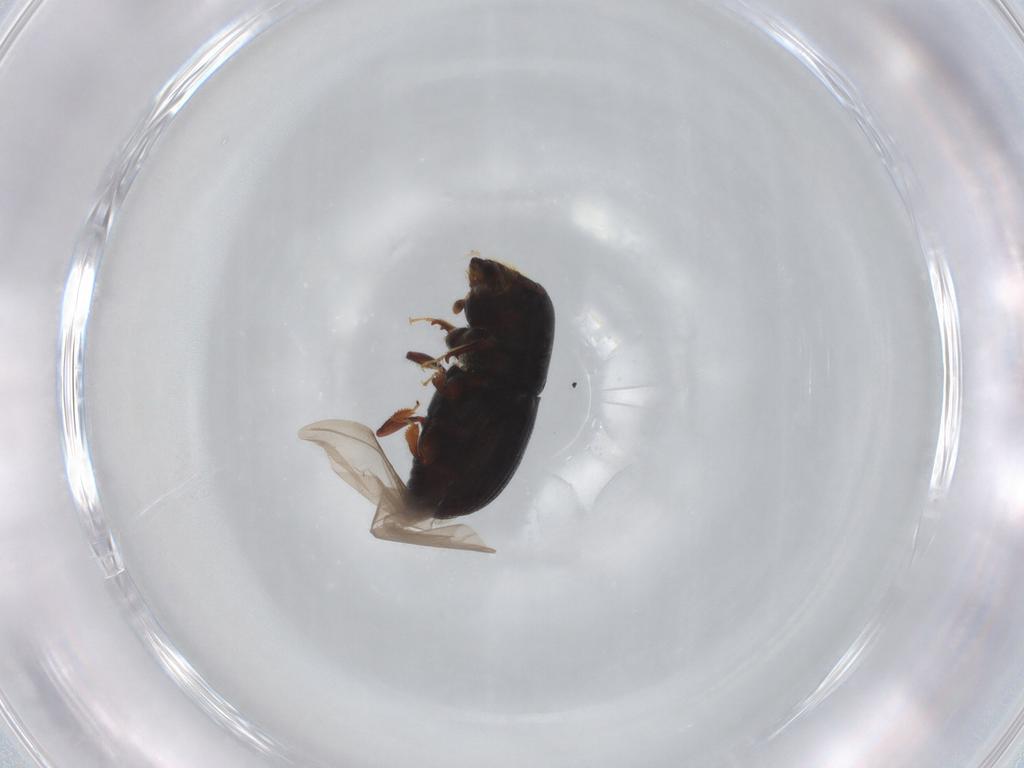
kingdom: Animalia
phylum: Arthropoda
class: Insecta
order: Coleoptera
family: Curculionidae
